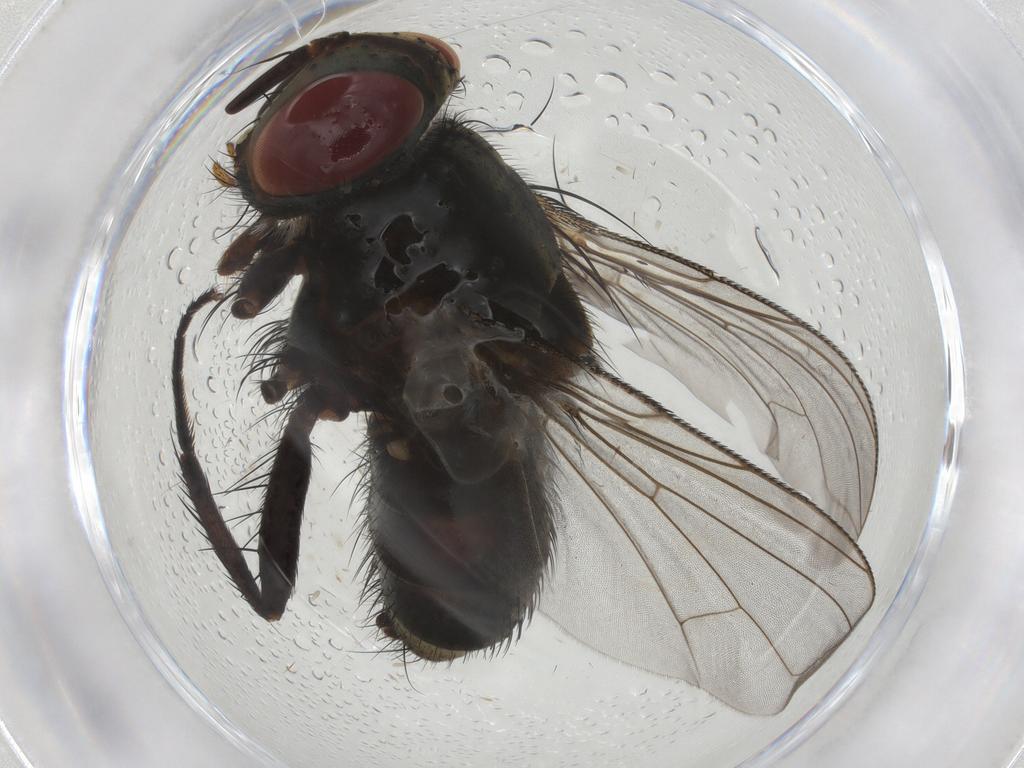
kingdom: Animalia
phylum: Arthropoda
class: Insecta
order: Diptera
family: Tachinidae
